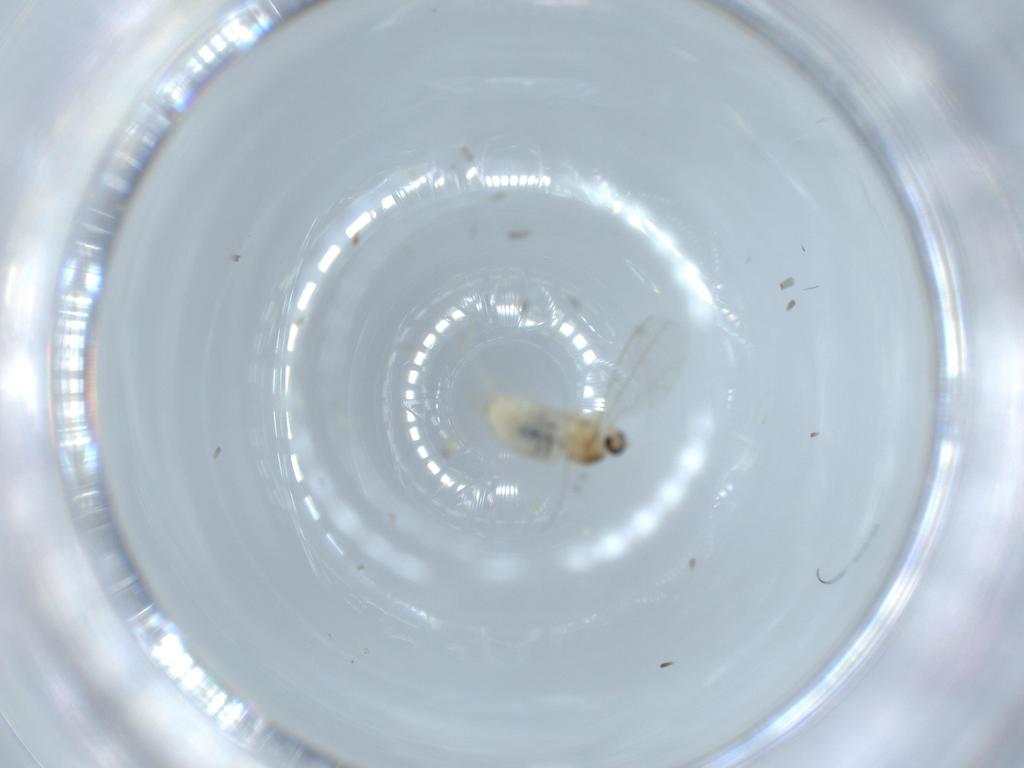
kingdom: Animalia
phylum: Arthropoda
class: Insecta
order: Diptera
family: Cecidomyiidae
